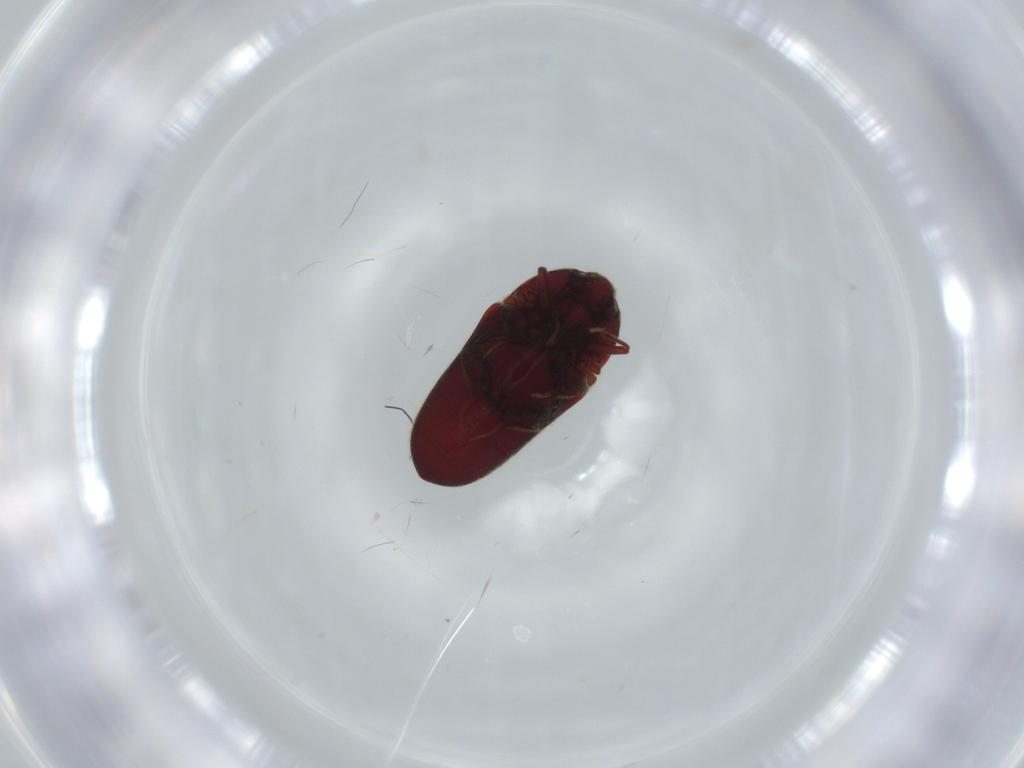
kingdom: Animalia
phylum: Arthropoda
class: Insecta
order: Coleoptera
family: Throscidae
